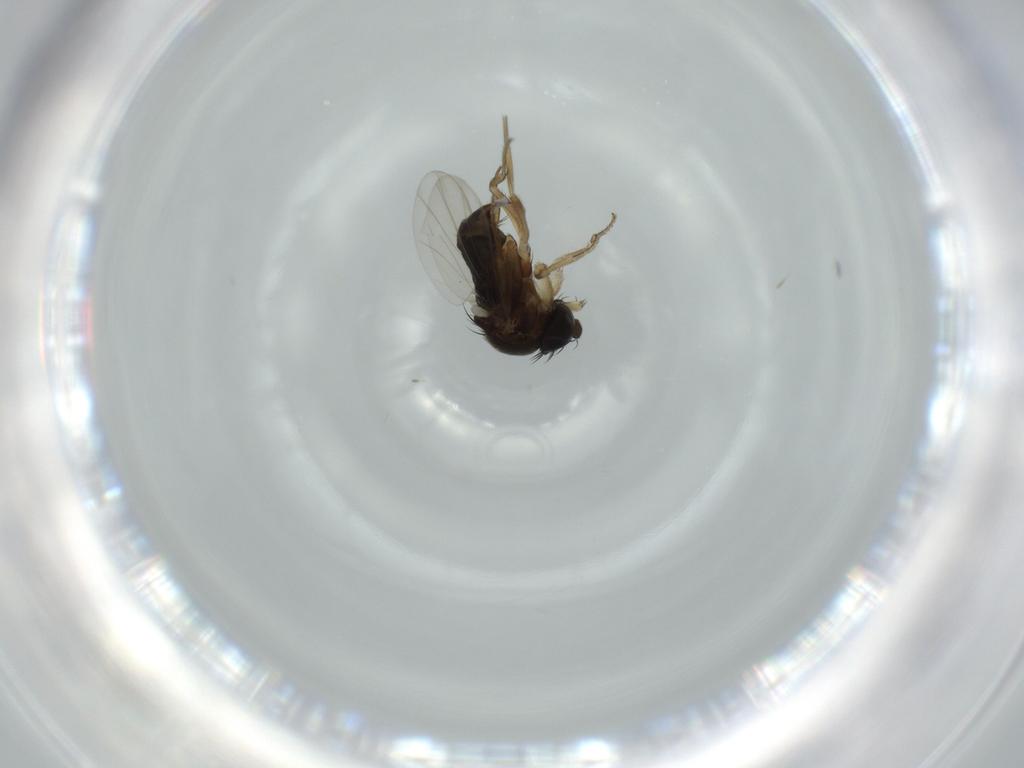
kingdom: Animalia
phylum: Arthropoda
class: Insecta
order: Diptera
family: Phoridae
